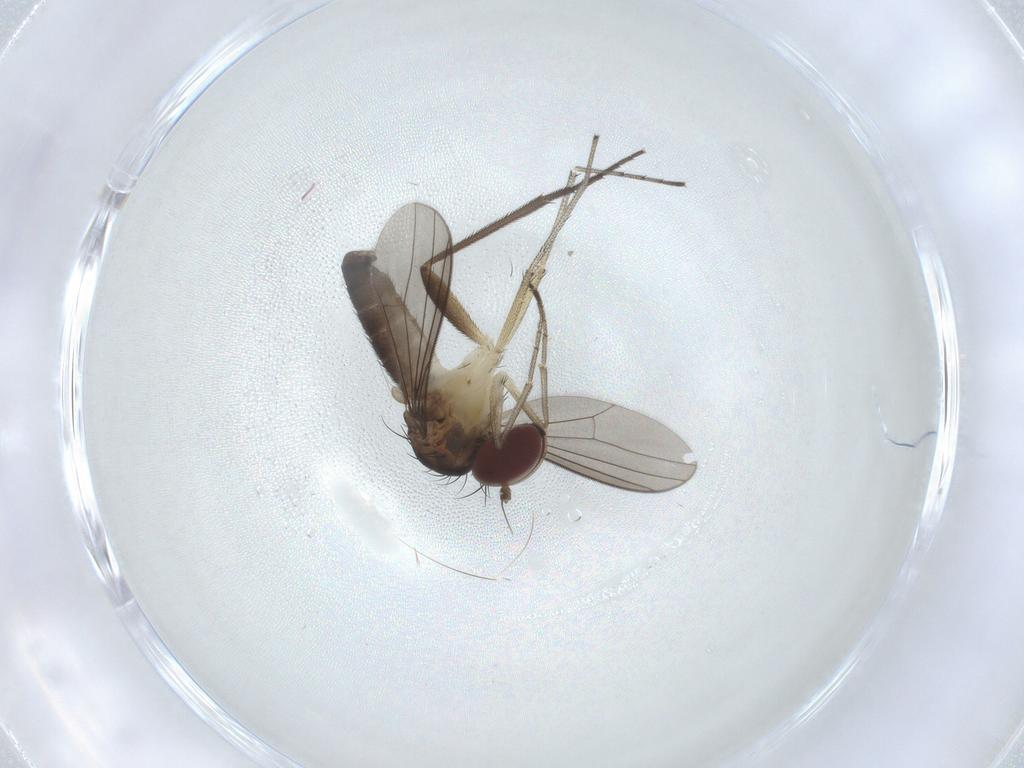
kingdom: Animalia
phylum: Arthropoda
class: Insecta
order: Diptera
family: Dolichopodidae
